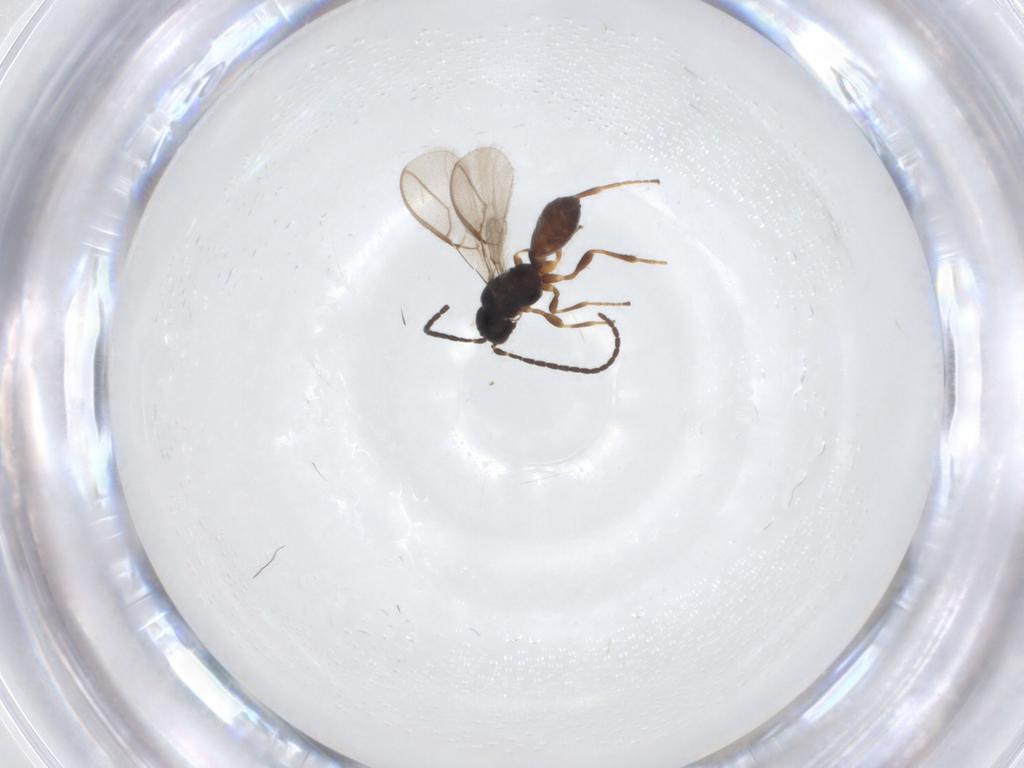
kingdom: Animalia
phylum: Arthropoda
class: Insecta
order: Hymenoptera
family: Braconidae
